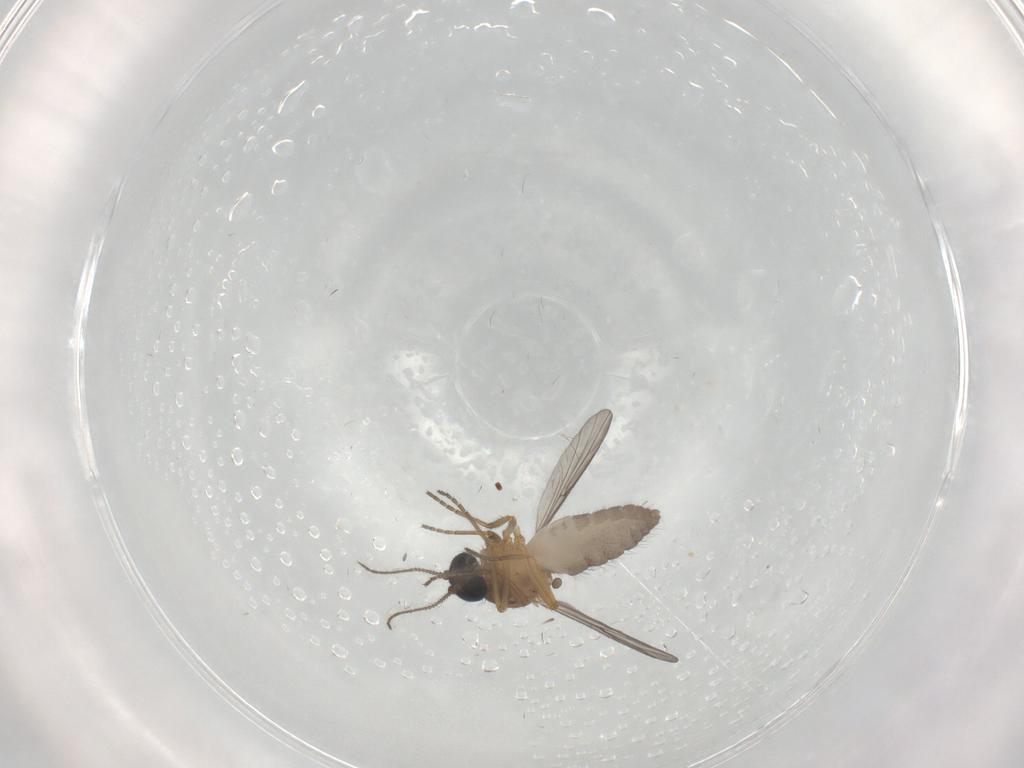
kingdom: Animalia
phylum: Arthropoda
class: Insecta
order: Diptera
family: Ceratopogonidae
